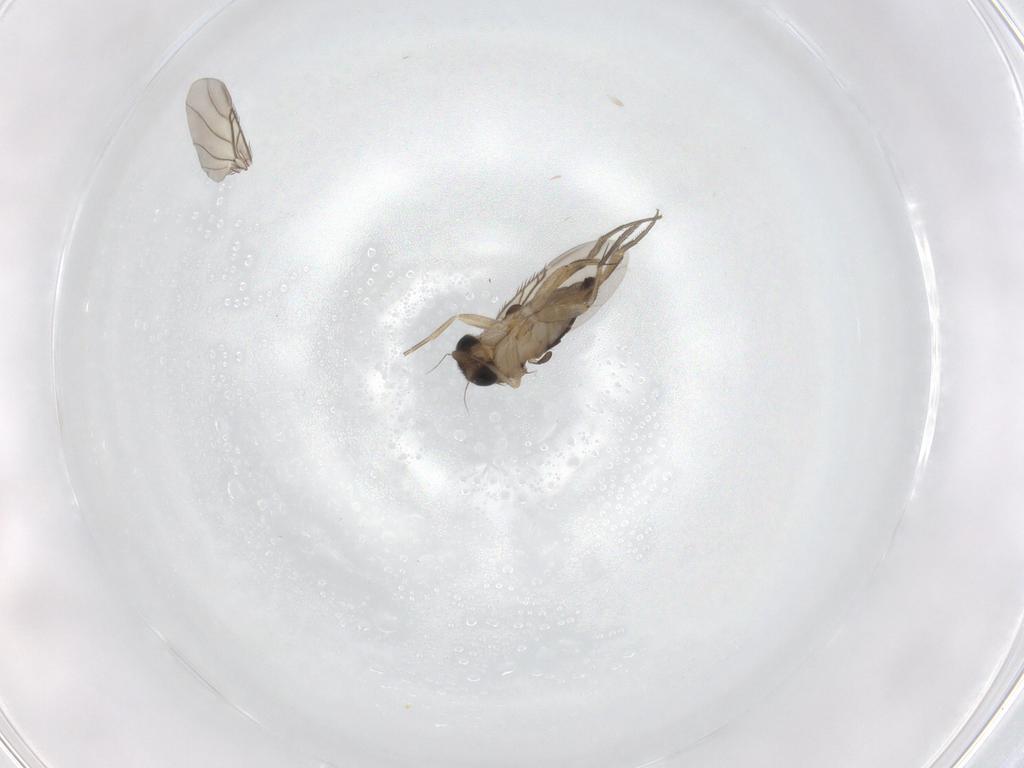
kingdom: Animalia
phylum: Arthropoda
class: Insecta
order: Diptera
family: Phoridae
